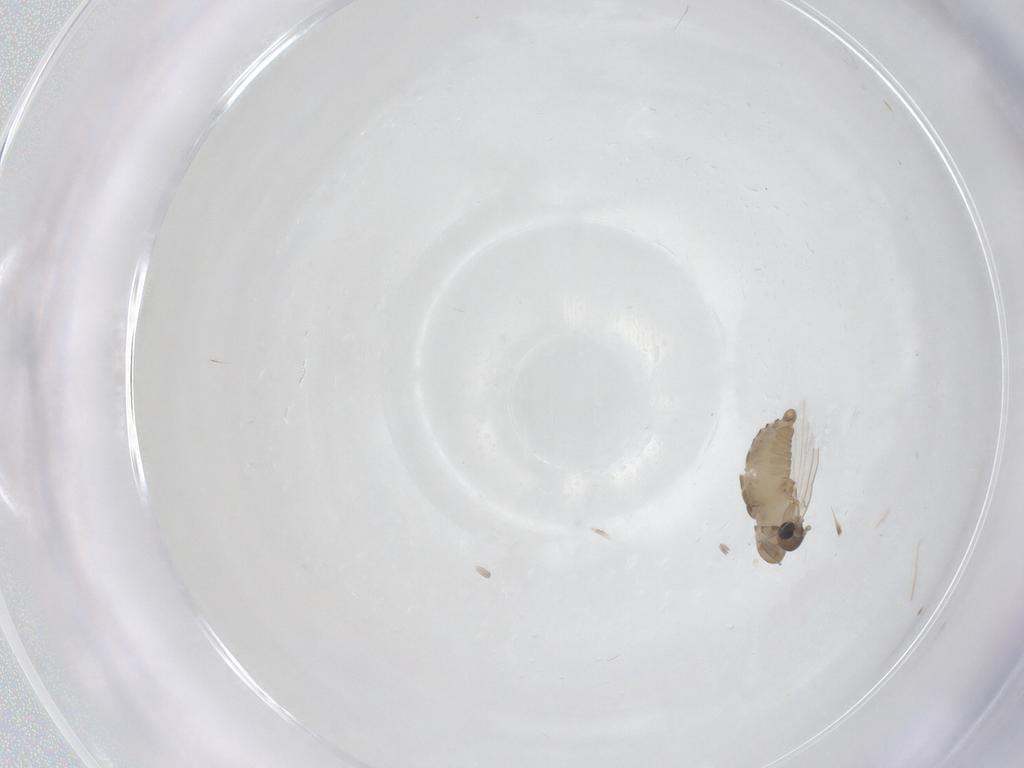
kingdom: Animalia
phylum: Arthropoda
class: Insecta
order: Diptera
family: Psychodidae
